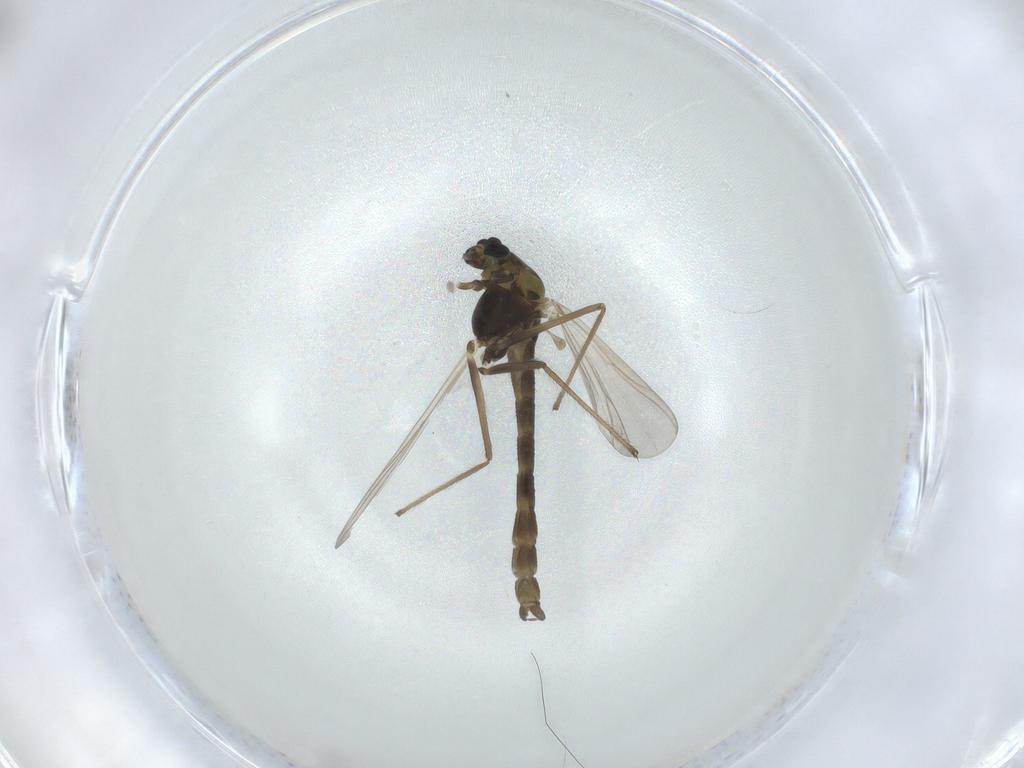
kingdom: Animalia
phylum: Arthropoda
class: Insecta
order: Diptera
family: Chironomidae
